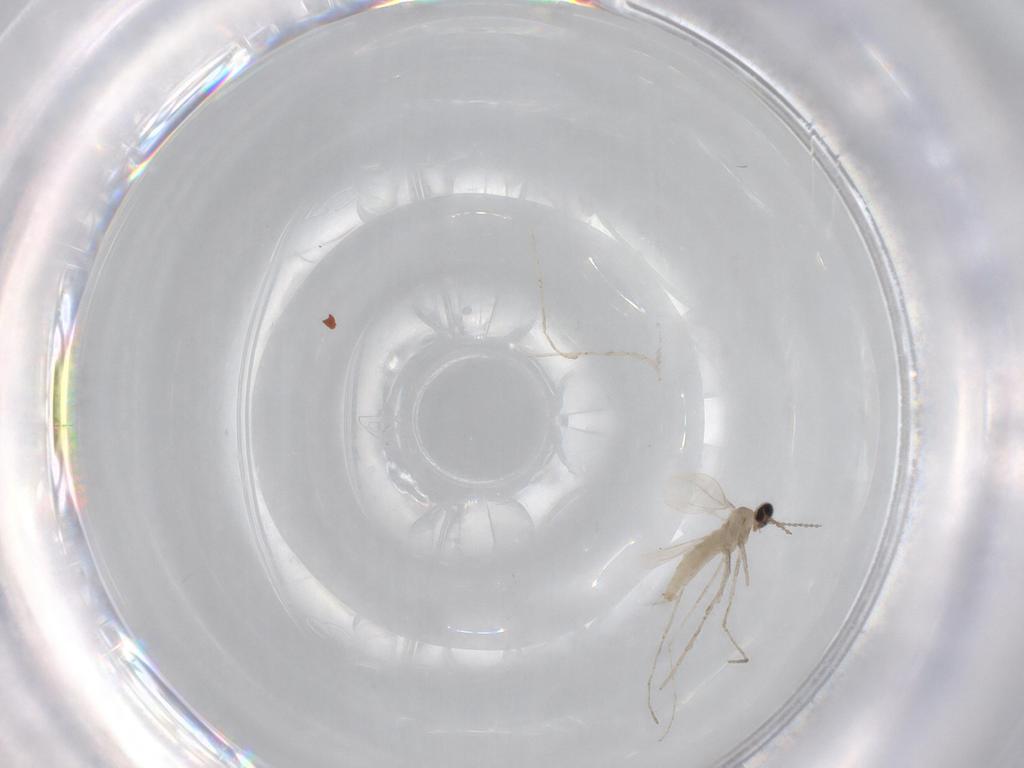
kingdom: Animalia
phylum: Arthropoda
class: Insecta
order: Diptera
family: Cecidomyiidae
